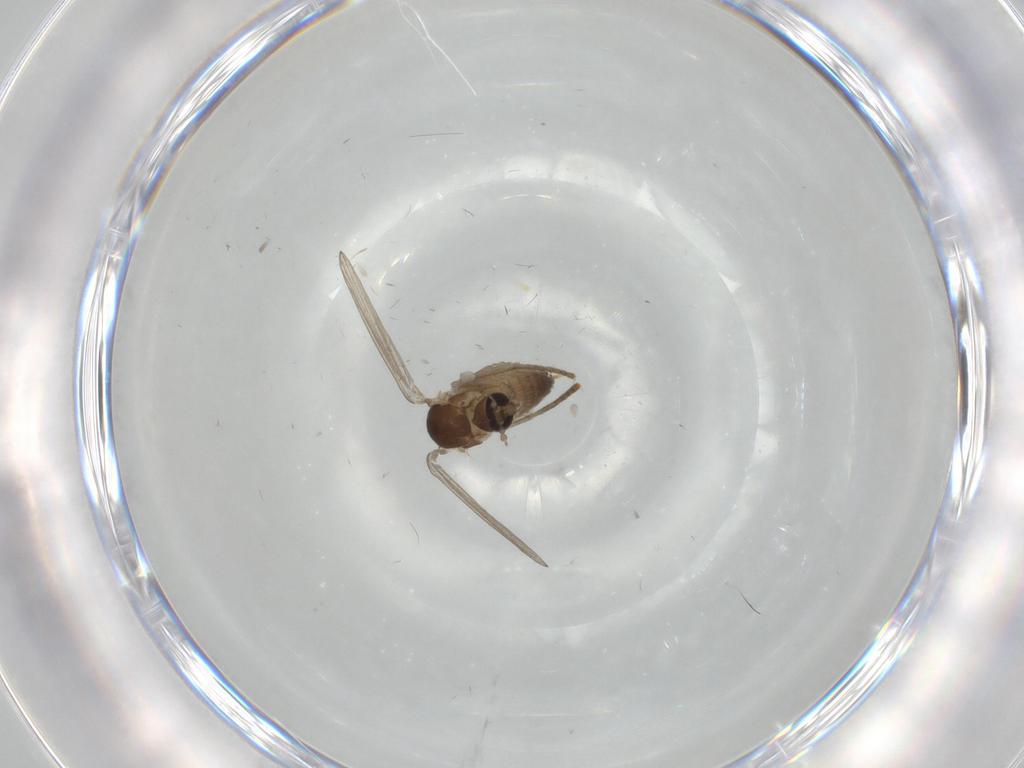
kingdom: Animalia
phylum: Arthropoda
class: Insecta
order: Diptera
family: Psychodidae
